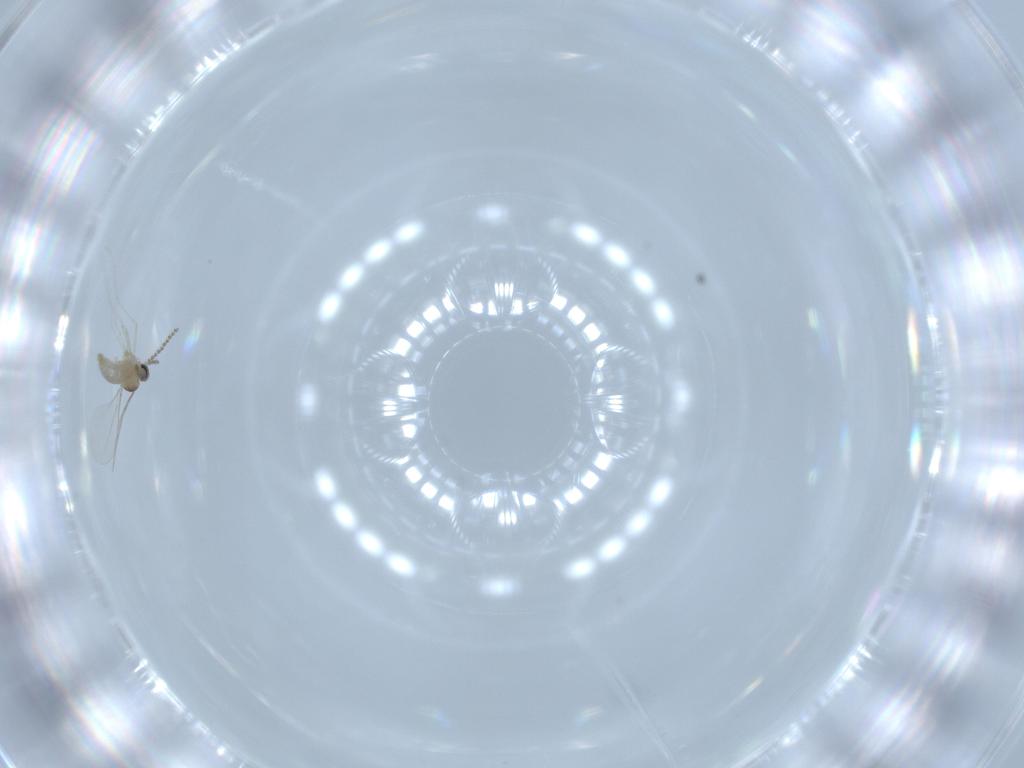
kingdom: Animalia
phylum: Arthropoda
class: Insecta
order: Diptera
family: Cecidomyiidae
